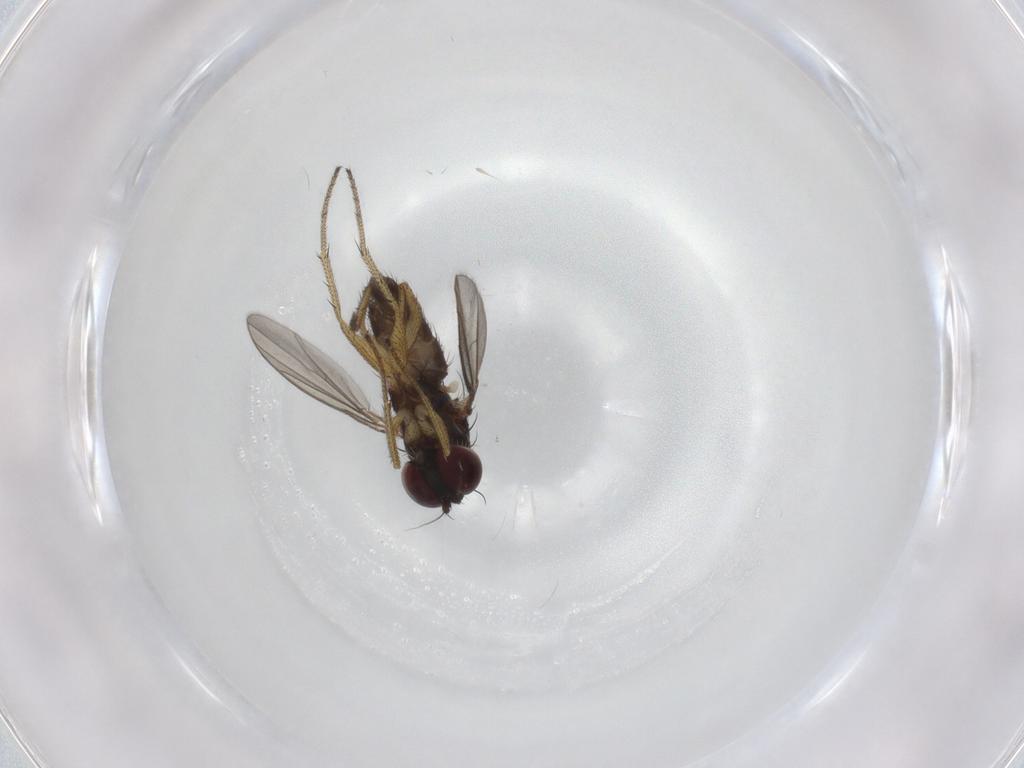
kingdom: Animalia
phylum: Arthropoda
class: Insecta
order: Diptera
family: Dolichopodidae
